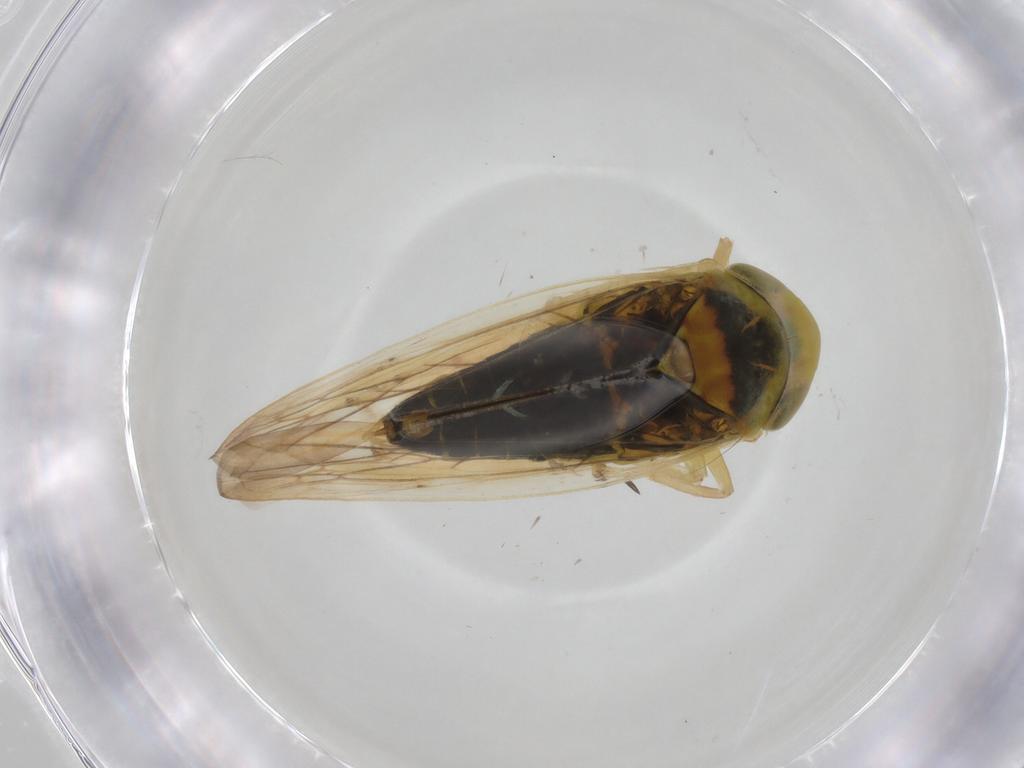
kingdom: Animalia
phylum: Arthropoda
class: Insecta
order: Hemiptera
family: Cicadellidae
